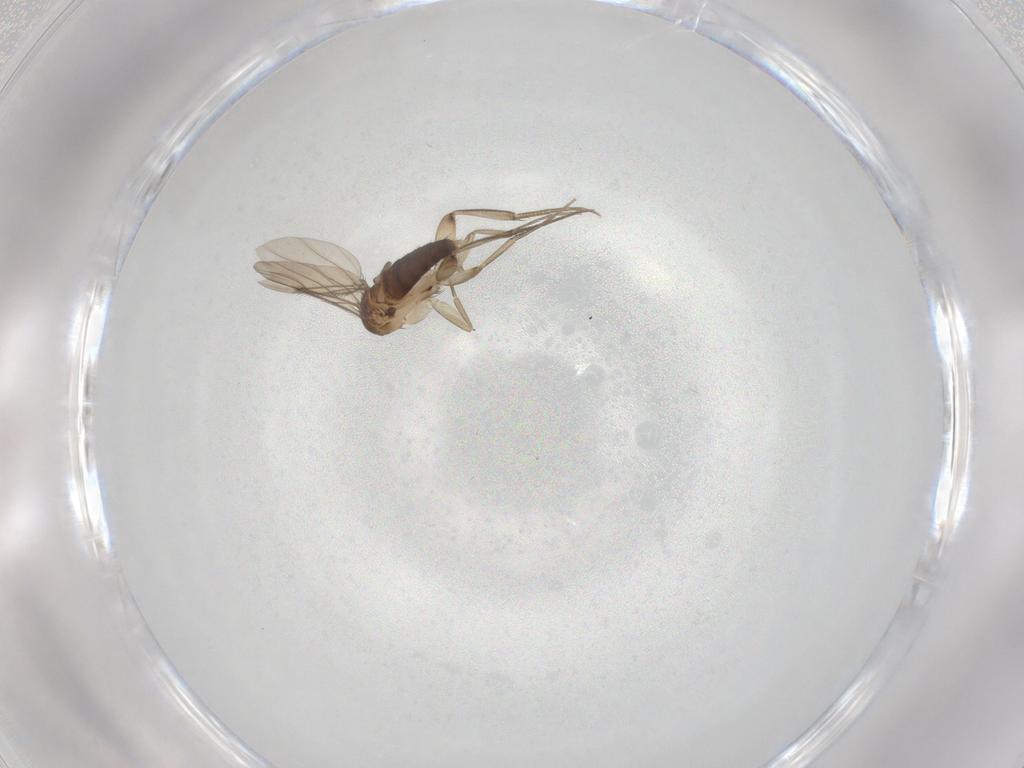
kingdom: Animalia
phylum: Arthropoda
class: Insecta
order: Diptera
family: Phoridae
